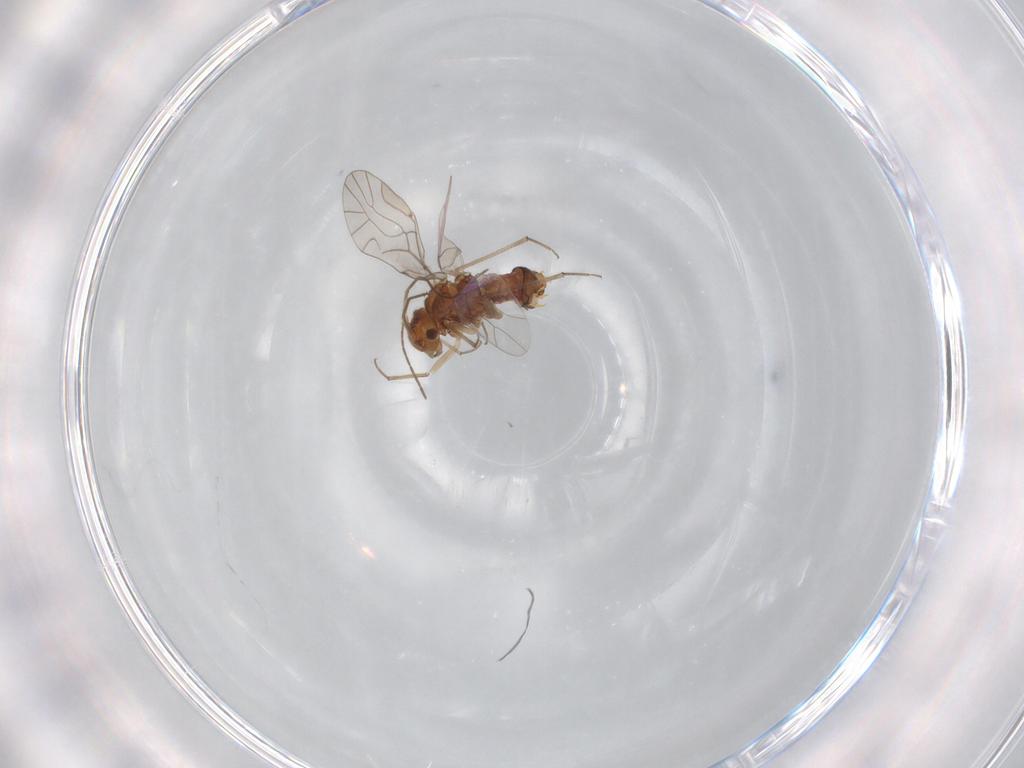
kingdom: Animalia
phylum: Arthropoda
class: Insecta
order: Psocodea
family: Lachesillidae
